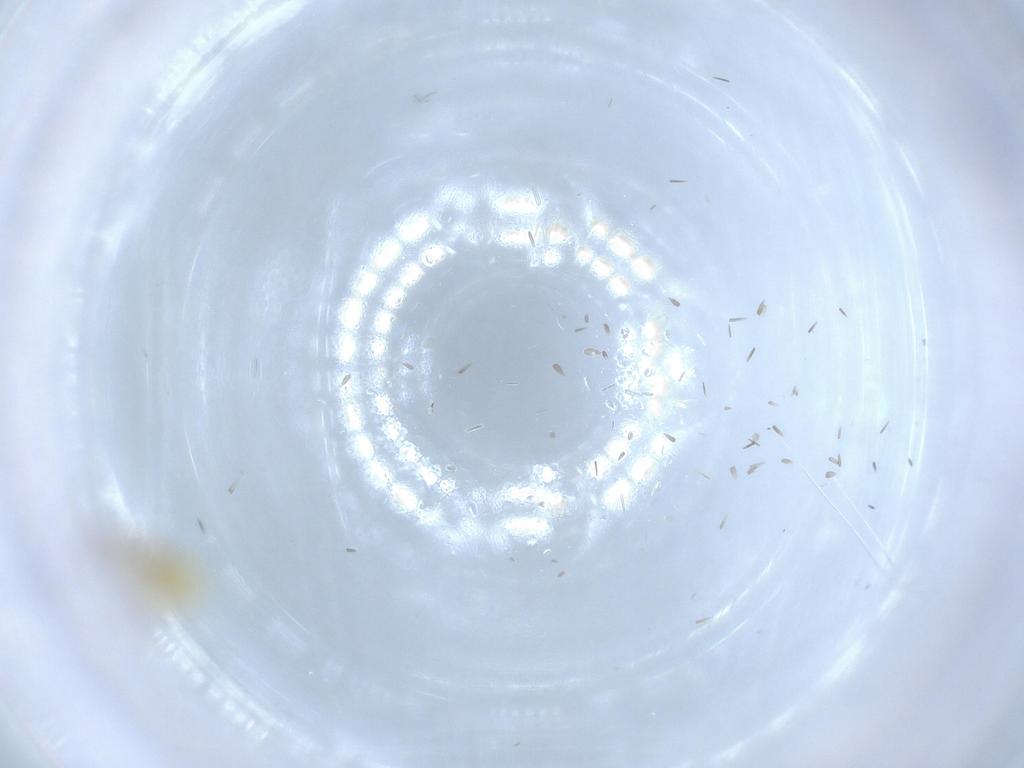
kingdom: Animalia
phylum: Arthropoda
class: Insecta
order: Hemiptera
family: Aleyrodidae
